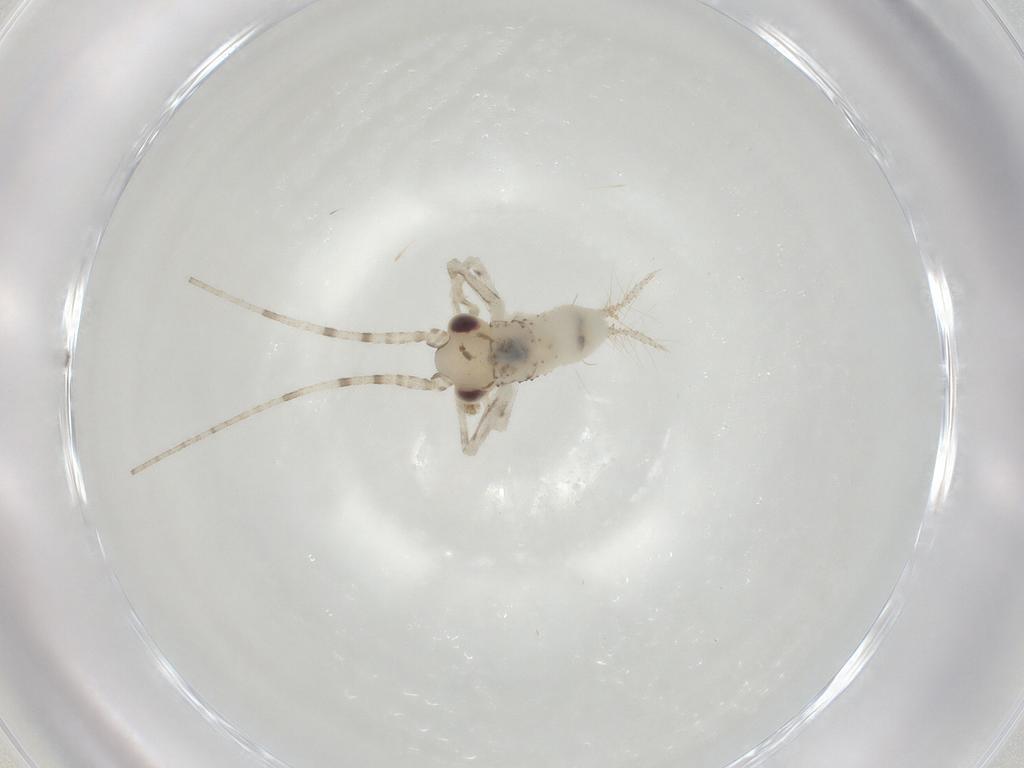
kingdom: Animalia
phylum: Arthropoda
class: Insecta
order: Orthoptera
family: Trigonidiidae
